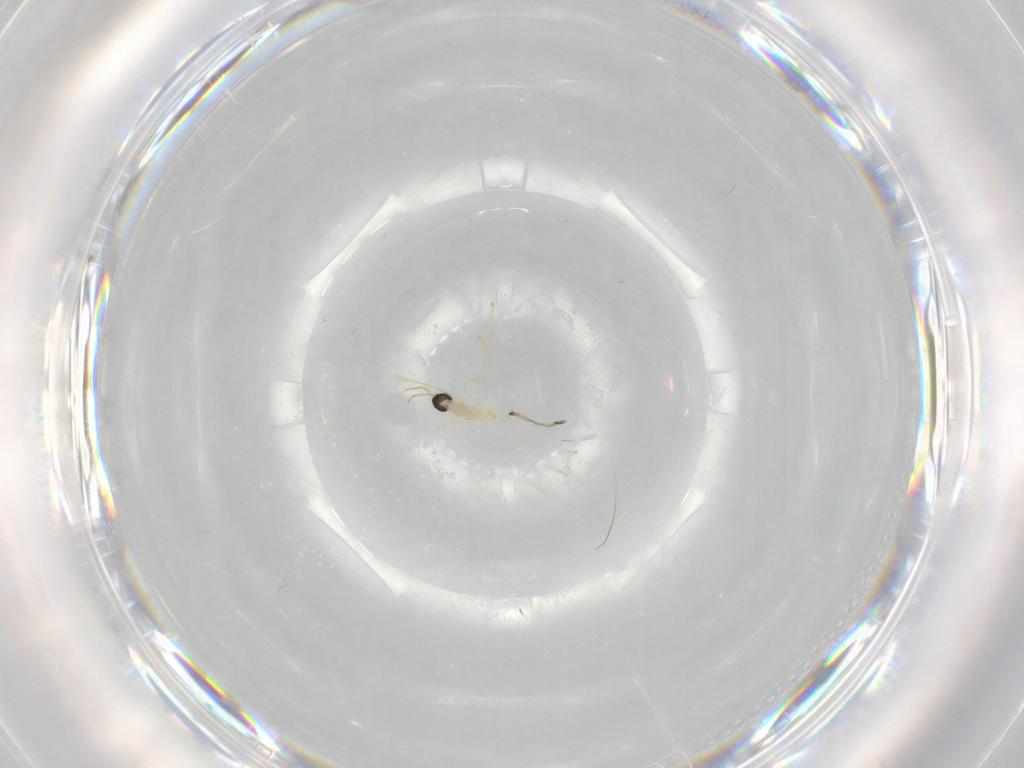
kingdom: Animalia
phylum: Arthropoda
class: Insecta
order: Diptera
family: Cecidomyiidae
